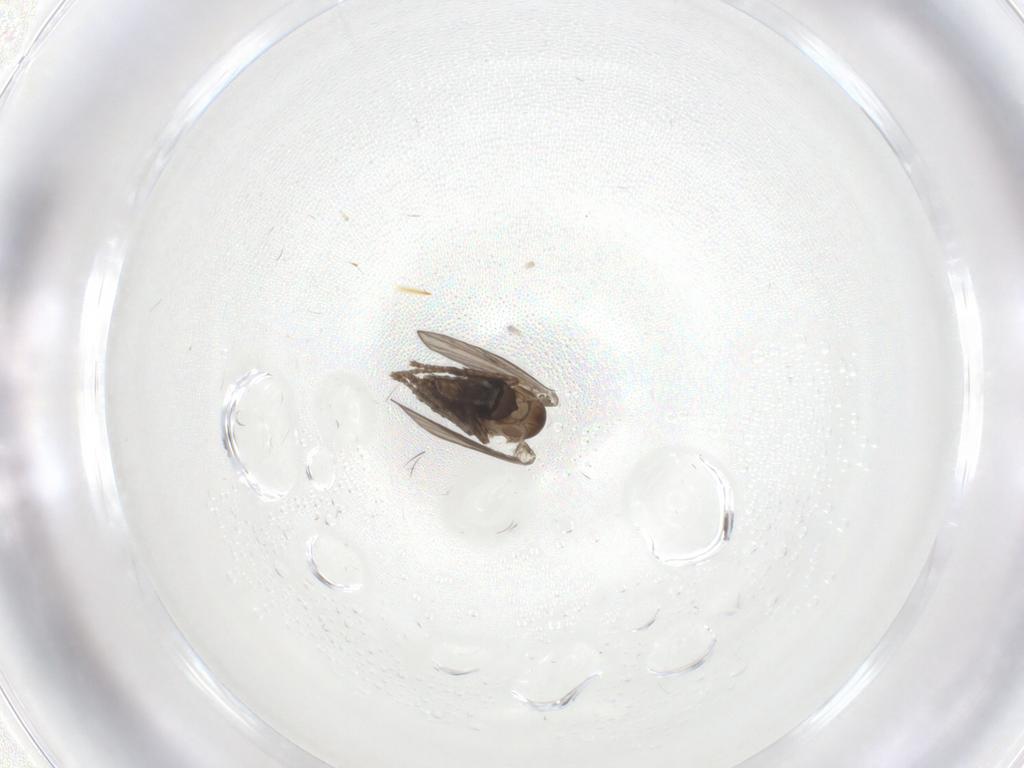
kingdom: Animalia
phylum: Arthropoda
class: Insecta
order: Diptera
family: Psychodidae
